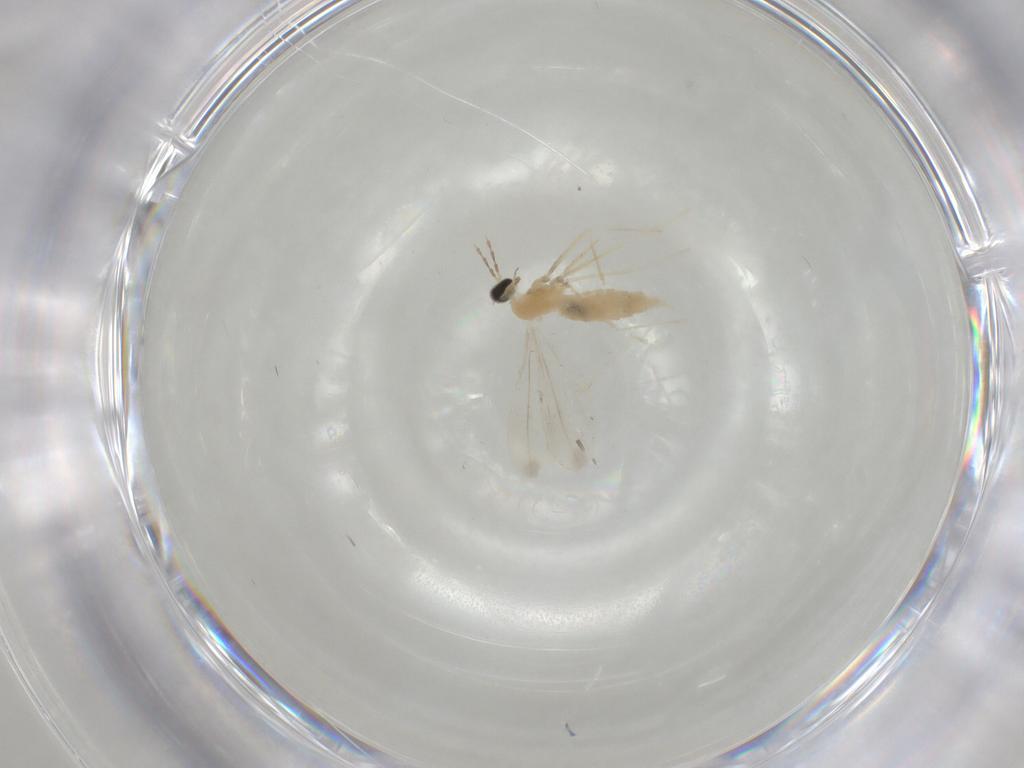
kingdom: Animalia
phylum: Arthropoda
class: Insecta
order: Diptera
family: Cecidomyiidae
